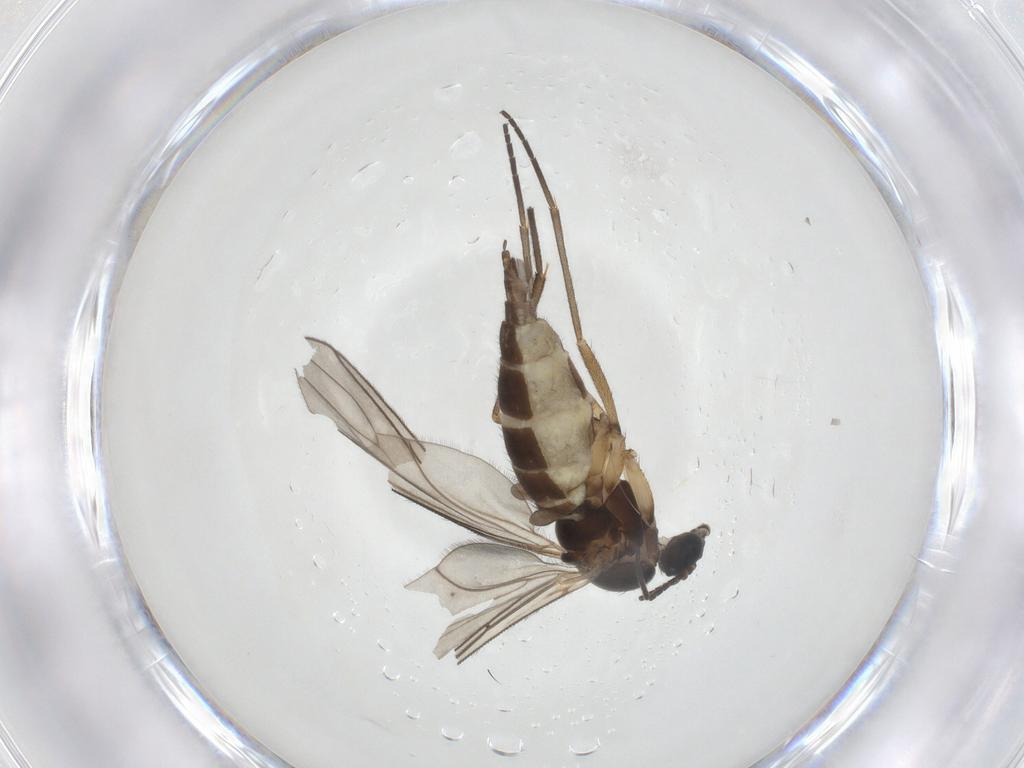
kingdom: Animalia
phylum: Arthropoda
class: Insecta
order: Diptera
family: Sciaridae
